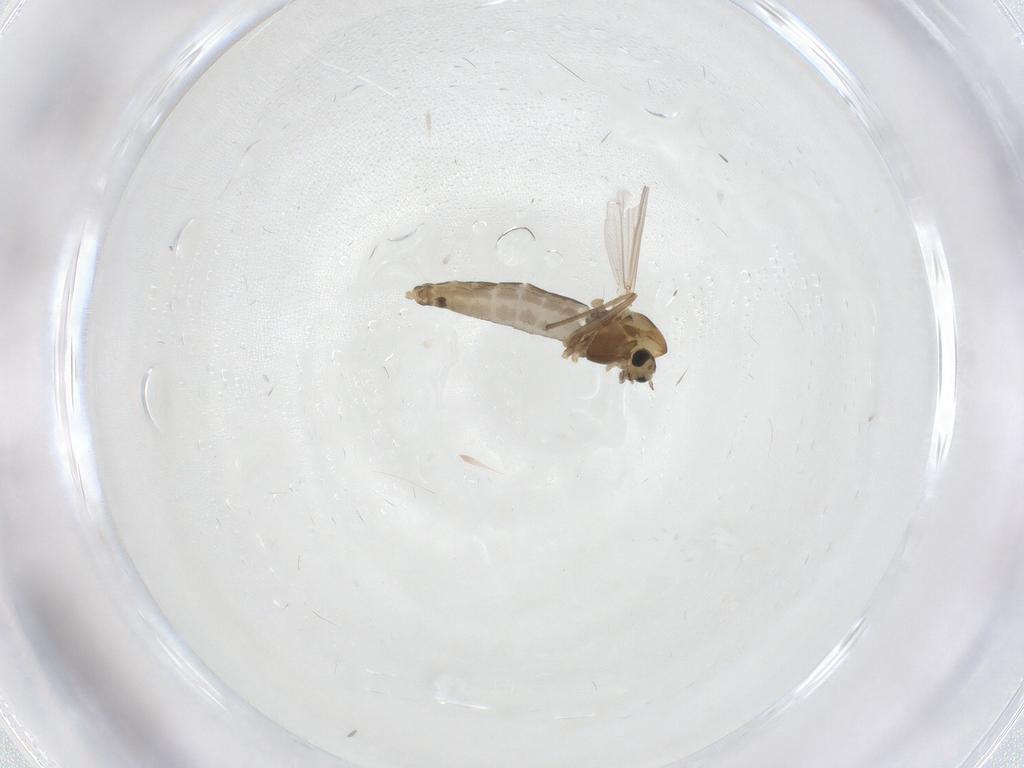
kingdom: Animalia
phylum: Arthropoda
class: Insecta
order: Diptera
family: Chironomidae
